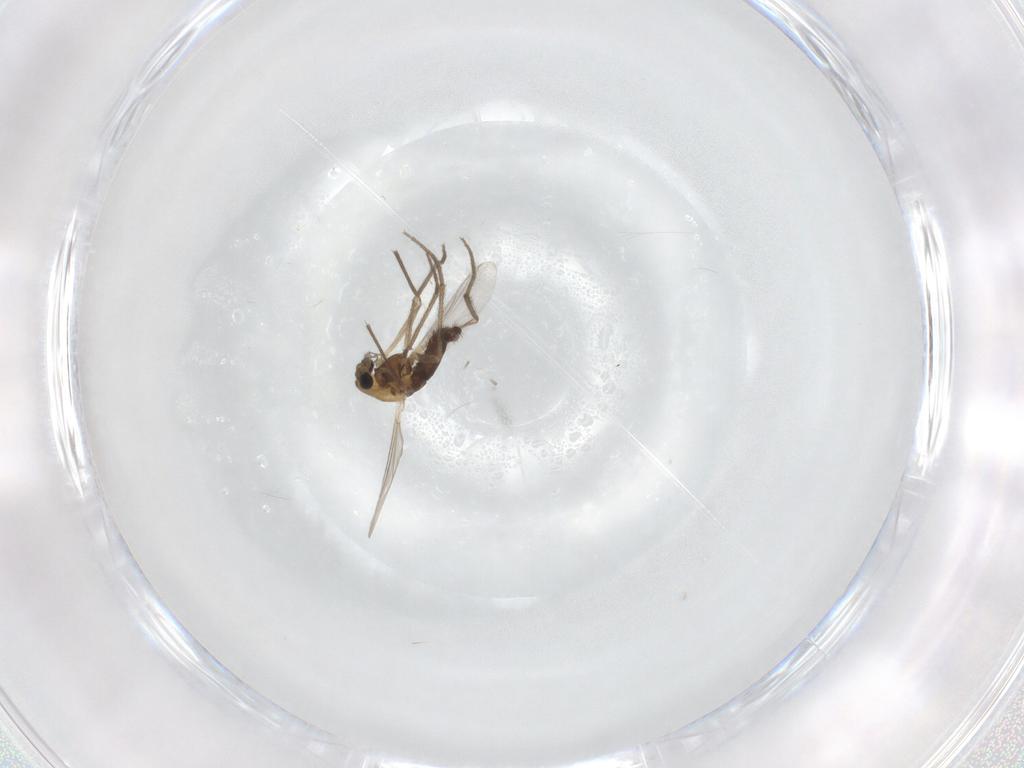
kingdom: Animalia
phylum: Arthropoda
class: Insecta
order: Diptera
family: Chironomidae
